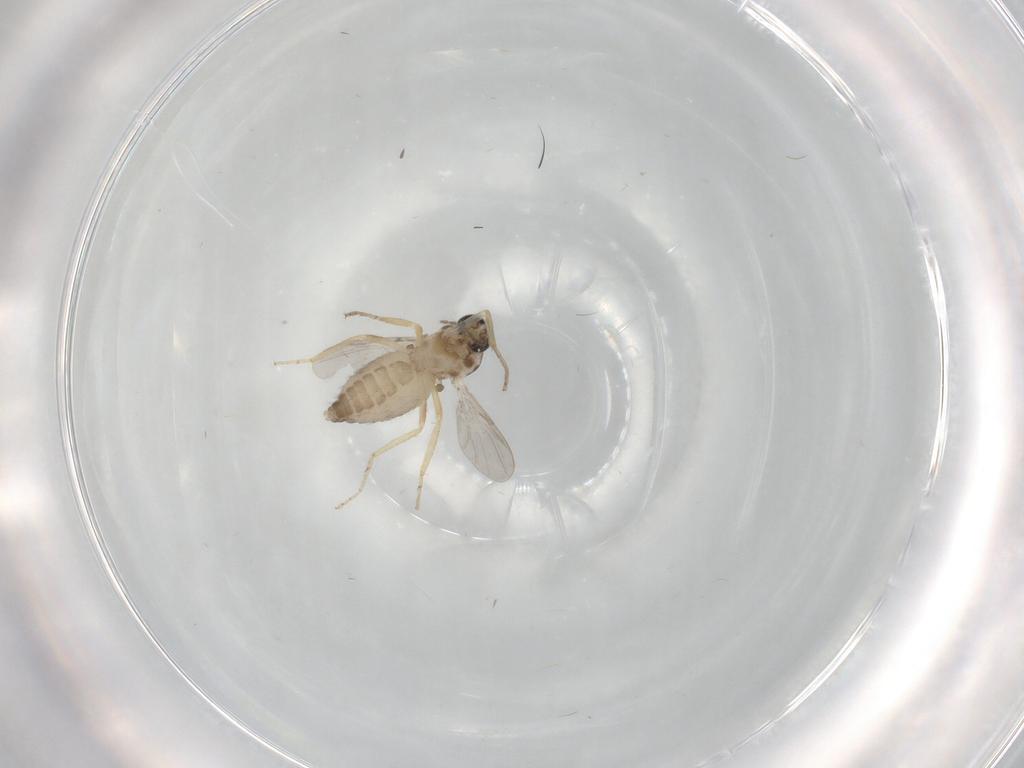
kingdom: Animalia
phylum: Arthropoda
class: Insecta
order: Diptera
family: Ceratopogonidae
